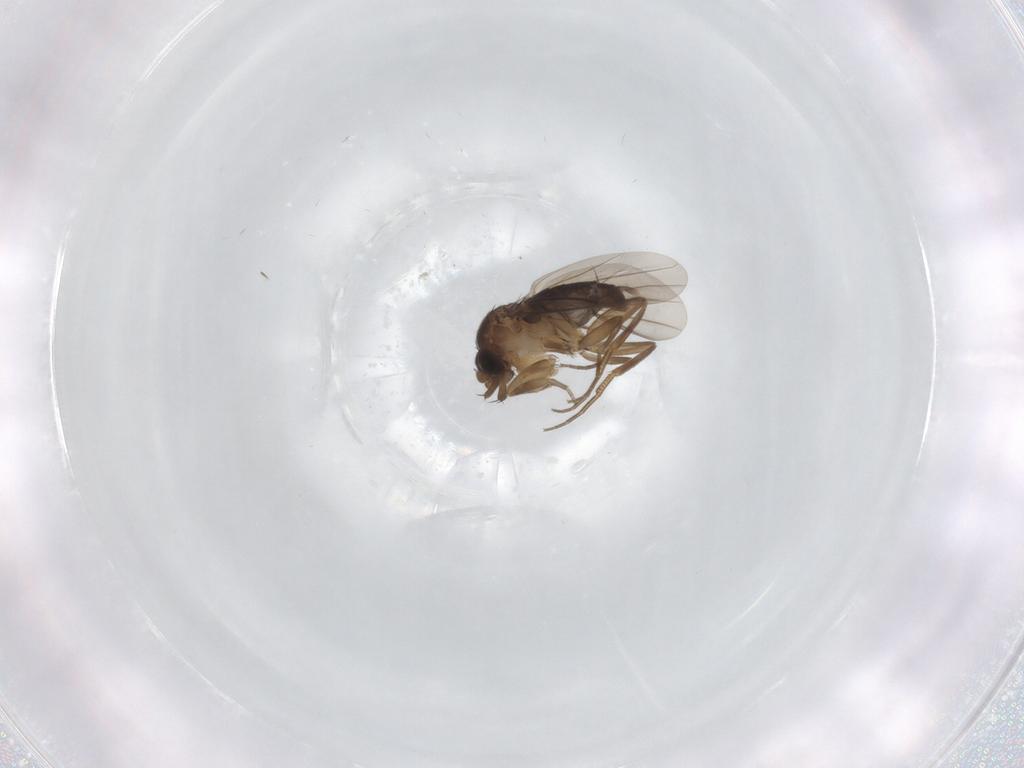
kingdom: Animalia
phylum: Arthropoda
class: Insecta
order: Diptera
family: Phoridae
